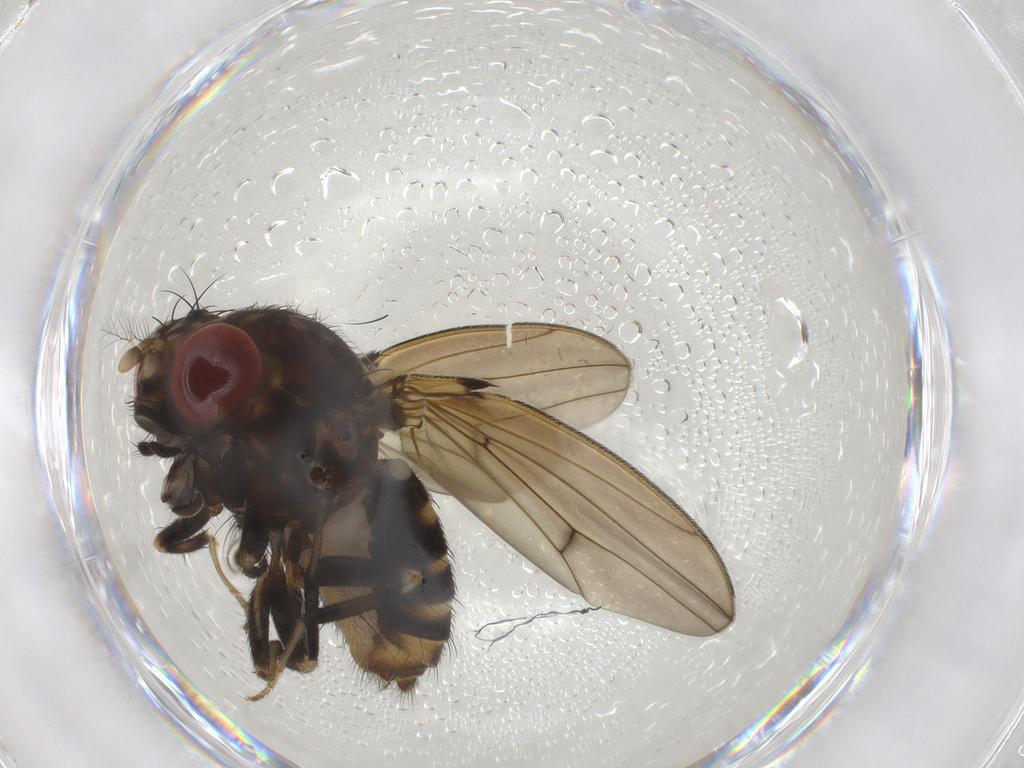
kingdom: Animalia
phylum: Arthropoda
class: Insecta
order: Diptera
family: Drosophilidae
